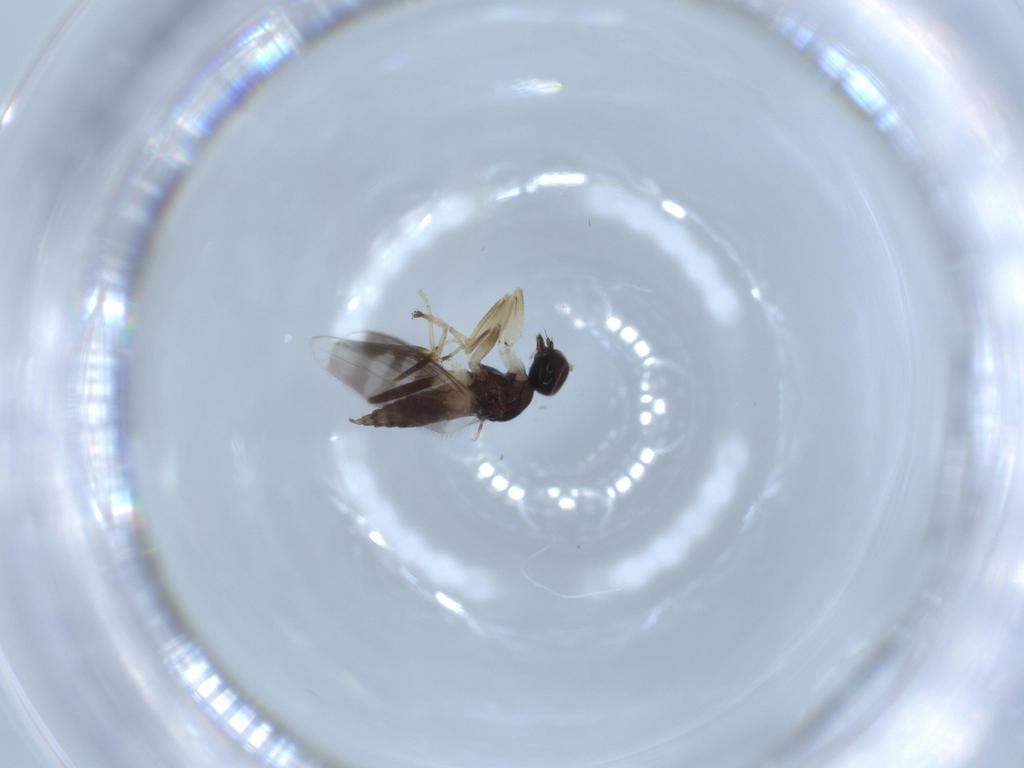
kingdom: Animalia
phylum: Arthropoda
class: Insecta
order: Diptera
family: Hybotidae
